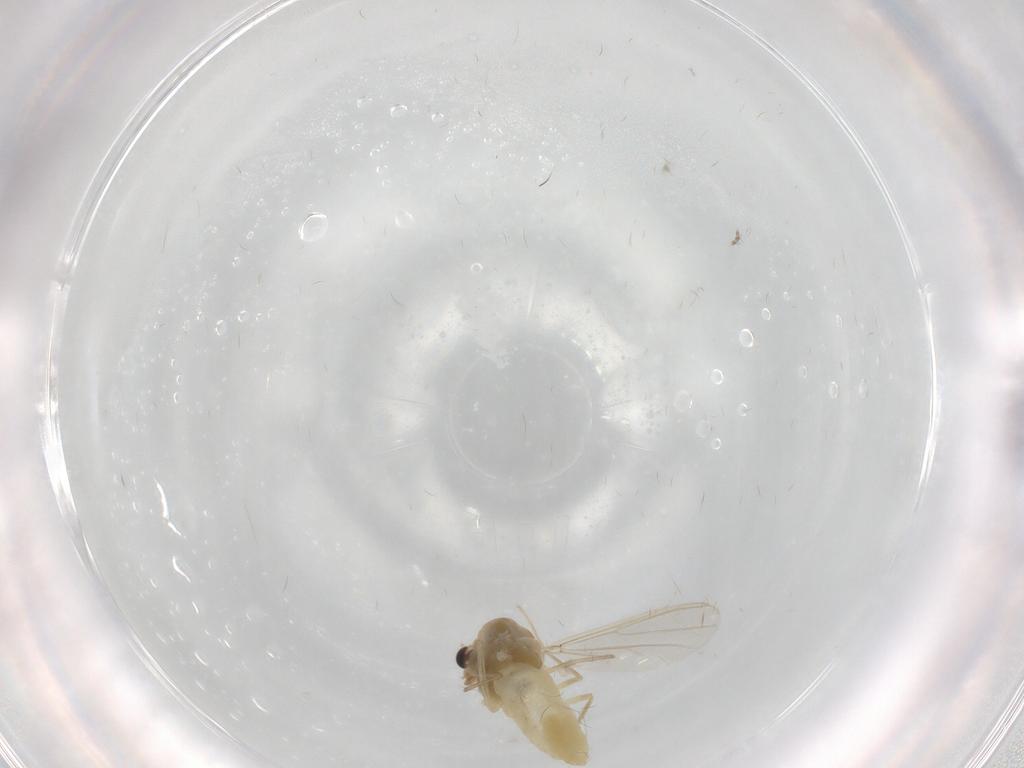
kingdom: Animalia
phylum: Arthropoda
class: Insecta
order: Diptera
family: Chironomidae
